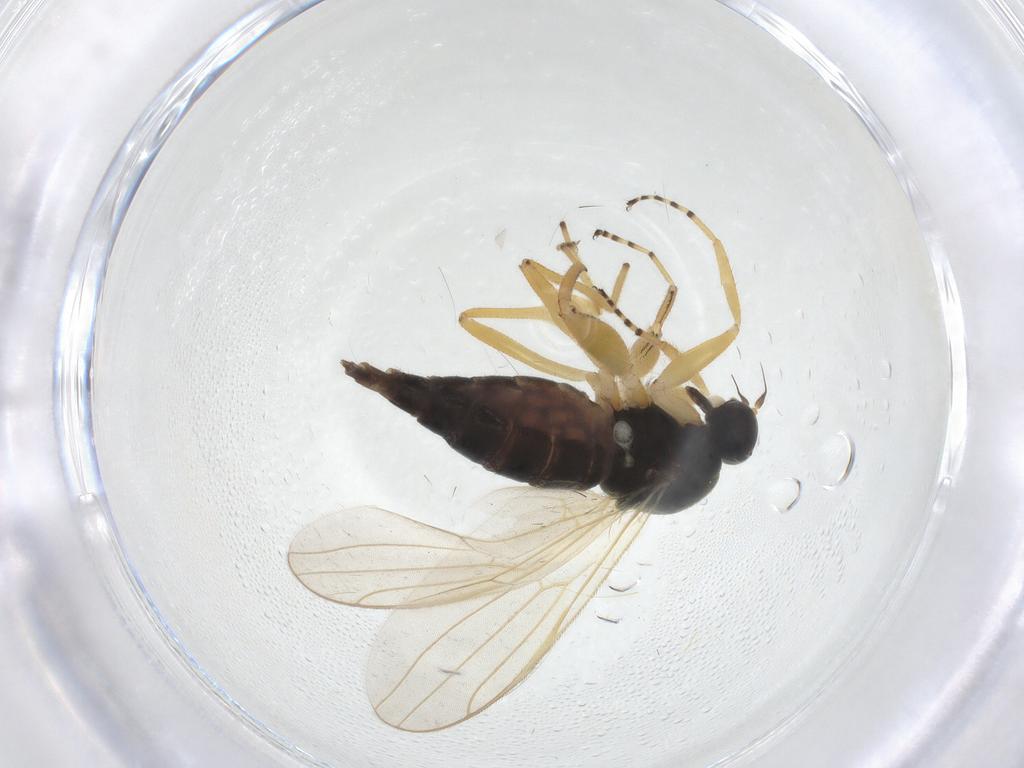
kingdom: Animalia
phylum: Arthropoda
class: Insecta
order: Diptera
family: Hybotidae
